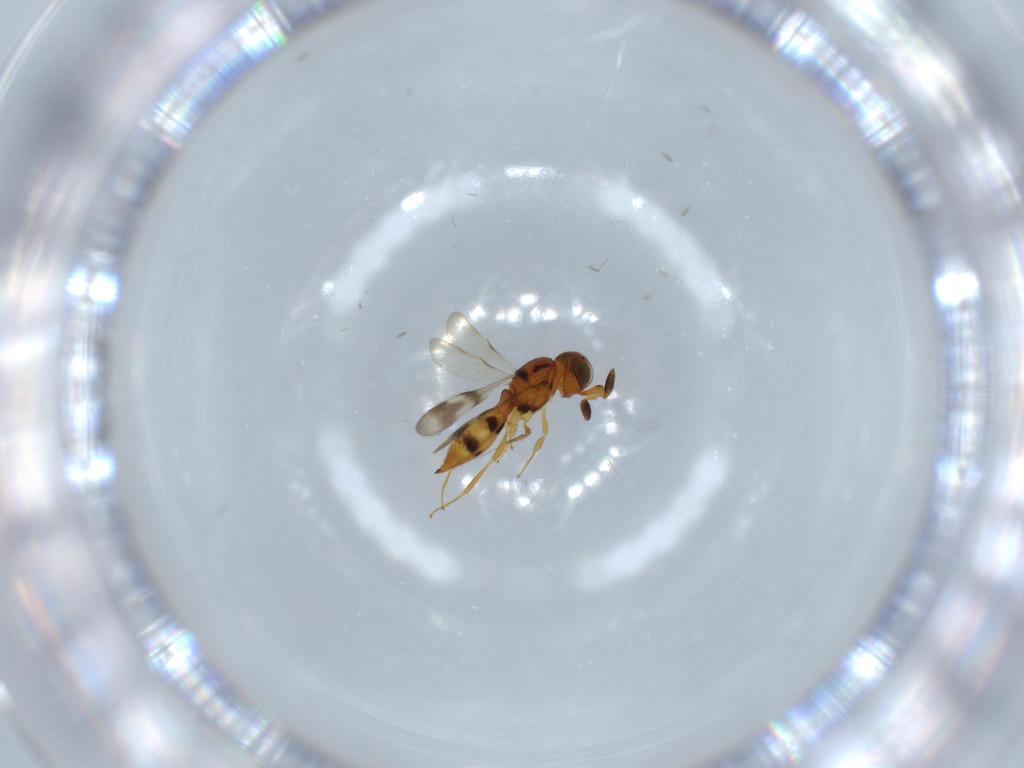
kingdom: Animalia
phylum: Arthropoda
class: Insecta
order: Hymenoptera
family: Scelionidae
